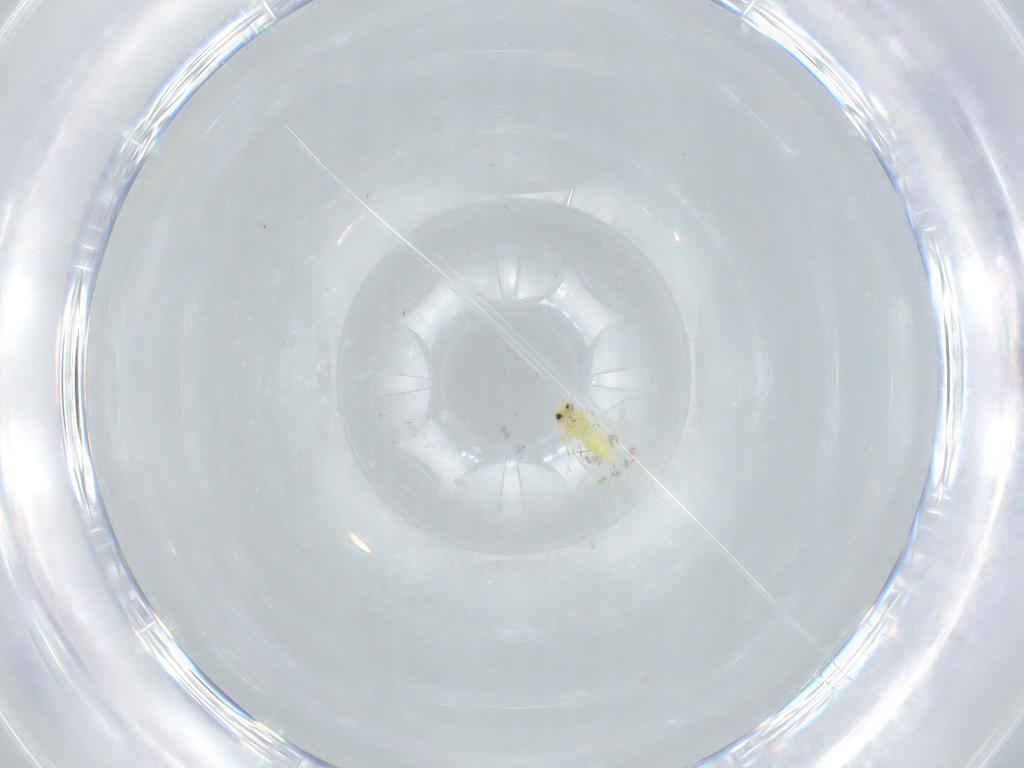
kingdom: Animalia
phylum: Arthropoda
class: Insecta
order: Hemiptera
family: Aleyrodidae
